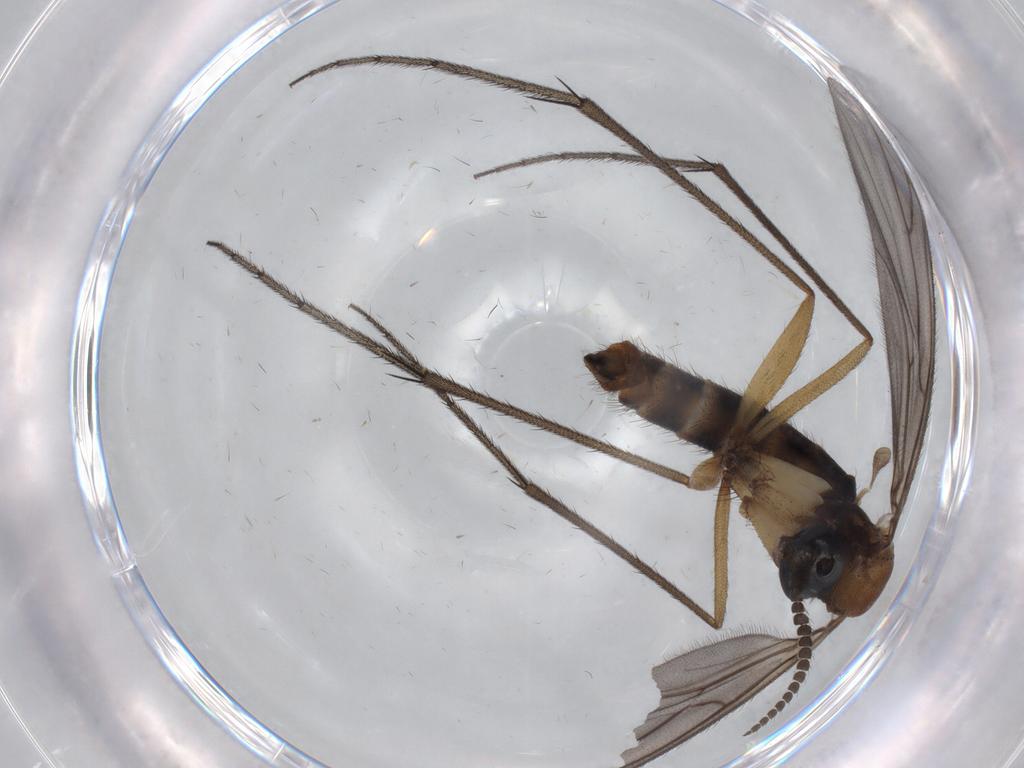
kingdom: Animalia
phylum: Arthropoda
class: Insecta
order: Diptera
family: Ditomyiidae
